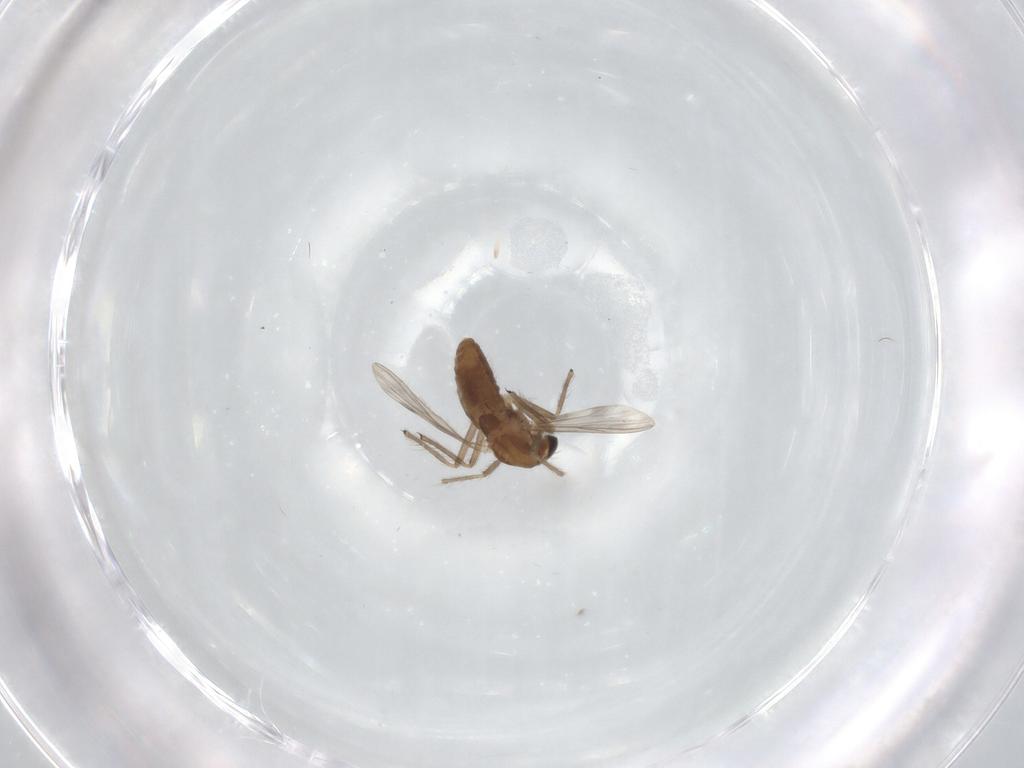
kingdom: Animalia
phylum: Arthropoda
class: Insecta
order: Diptera
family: Chironomidae
